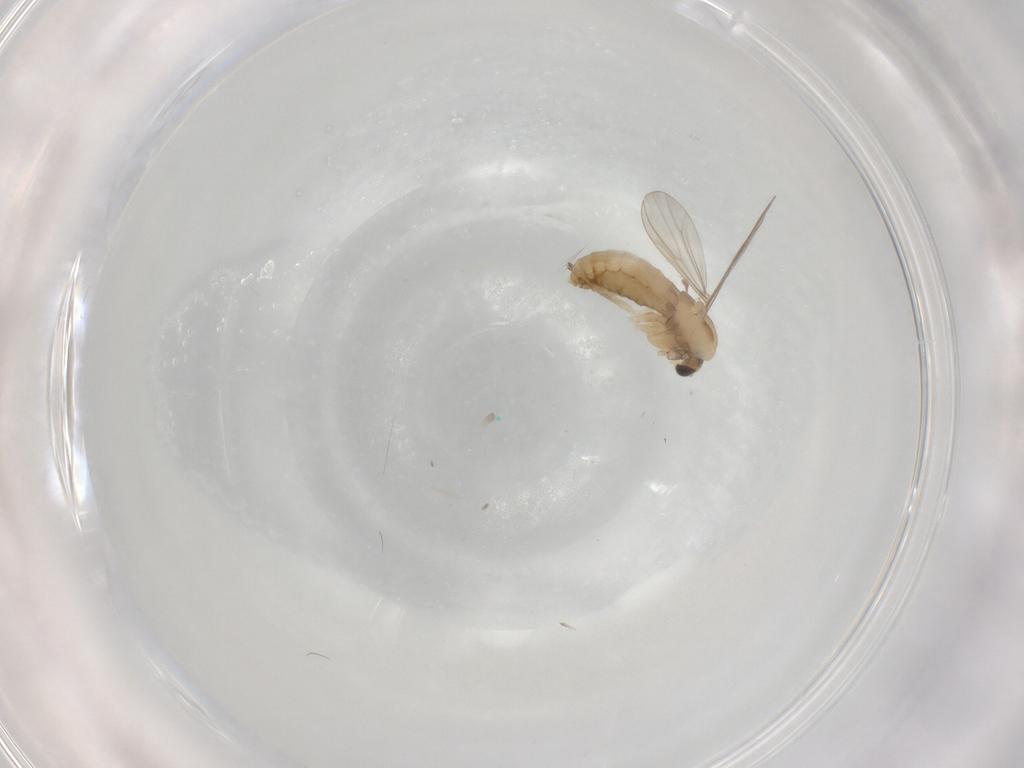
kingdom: Animalia
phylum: Arthropoda
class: Insecta
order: Diptera
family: Chironomidae
